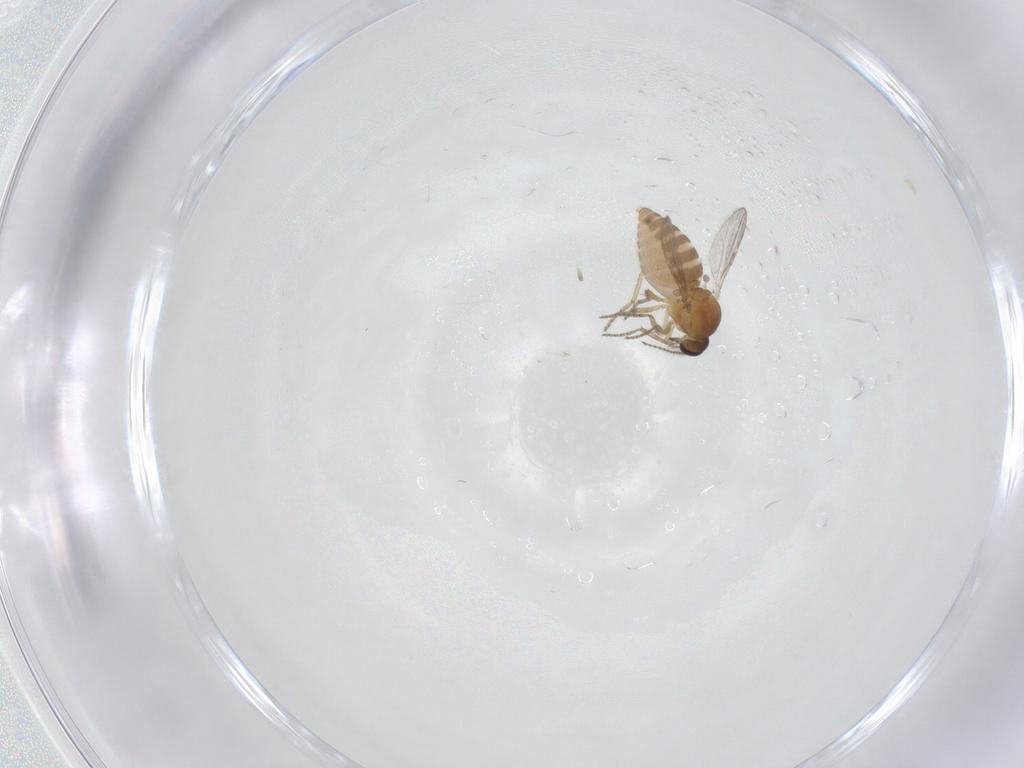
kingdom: Animalia
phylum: Arthropoda
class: Insecta
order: Diptera
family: Ceratopogonidae
